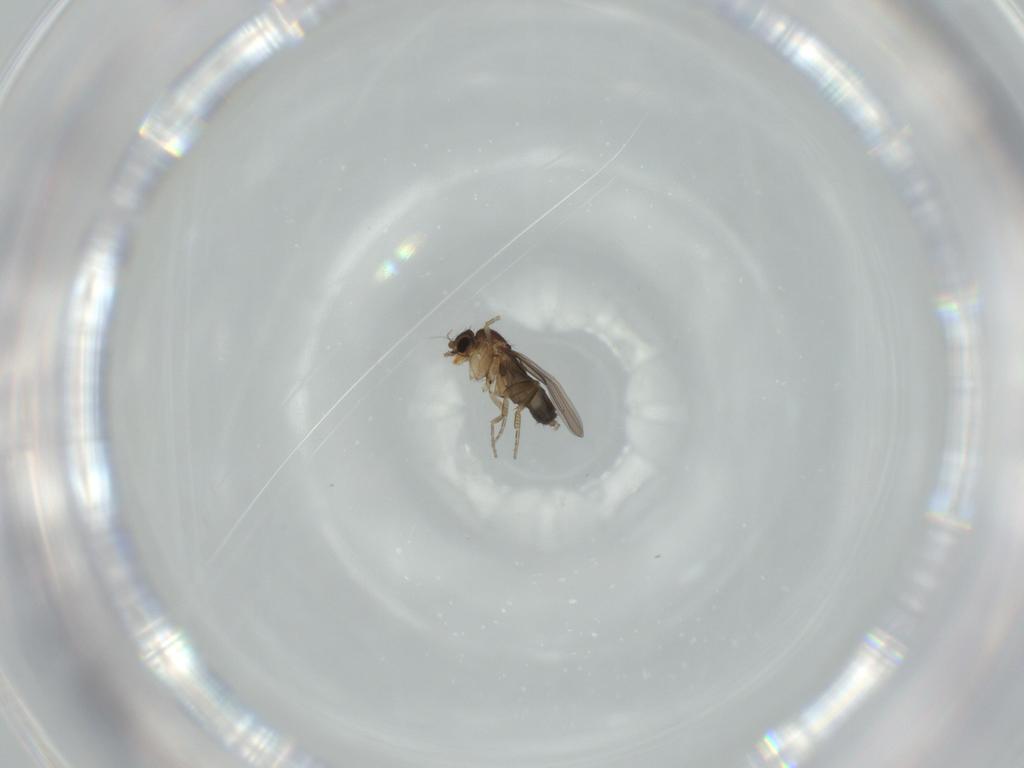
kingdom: Animalia
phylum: Arthropoda
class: Insecta
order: Diptera
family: Phoridae
